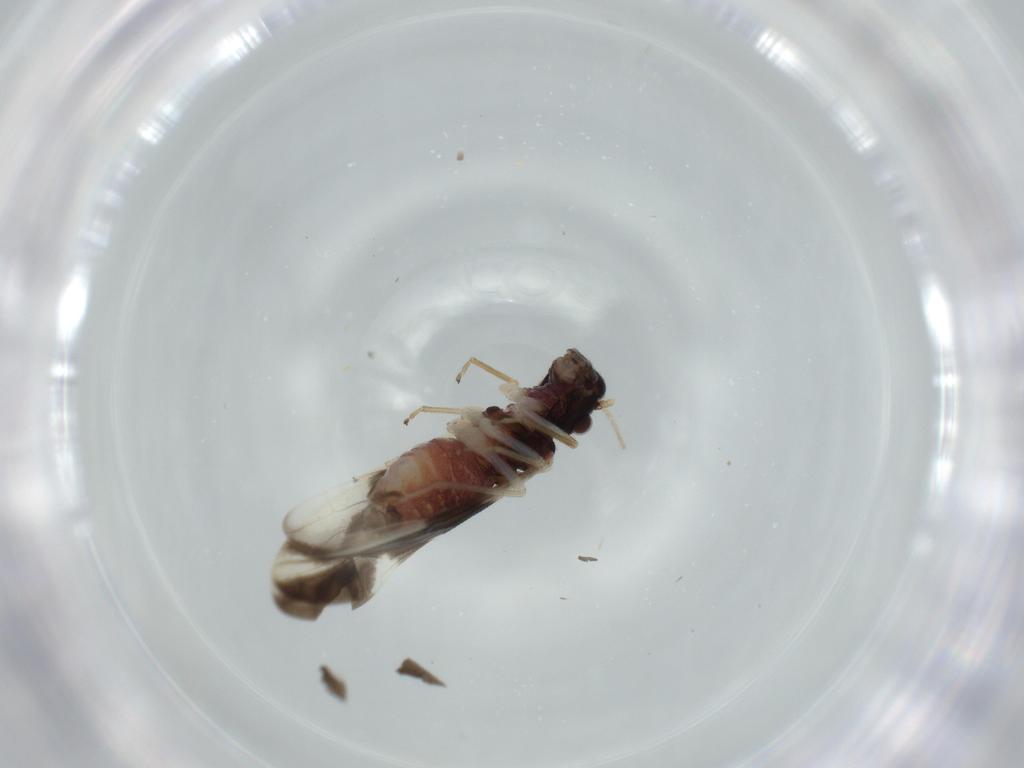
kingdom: Animalia
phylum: Arthropoda
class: Insecta
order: Psocodea
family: Caeciliusidae
